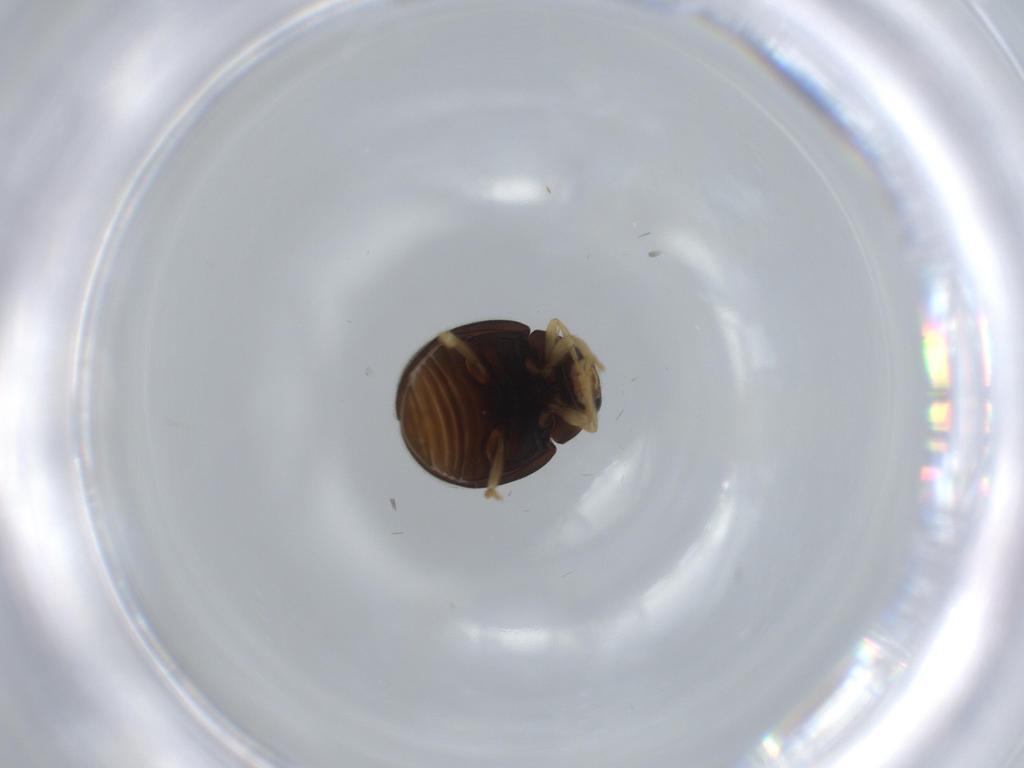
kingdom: Animalia
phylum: Arthropoda
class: Insecta
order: Coleoptera
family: Coccinellidae
